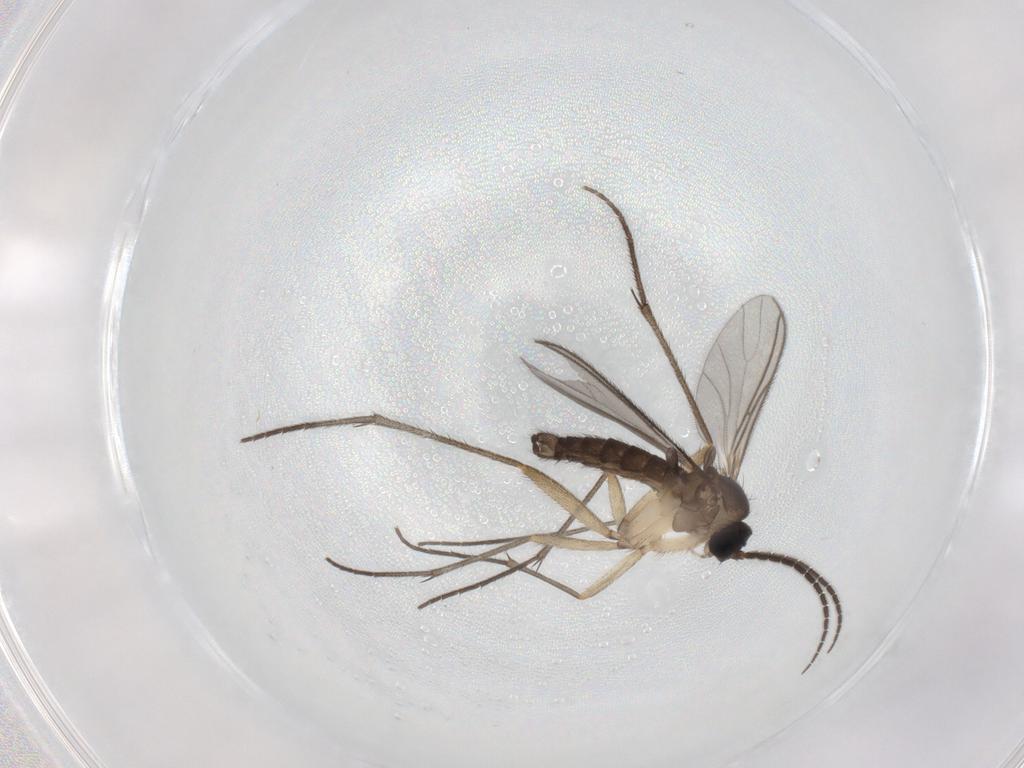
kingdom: Animalia
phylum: Arthropoda
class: Insecta
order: Diptera
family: Sciaridae
